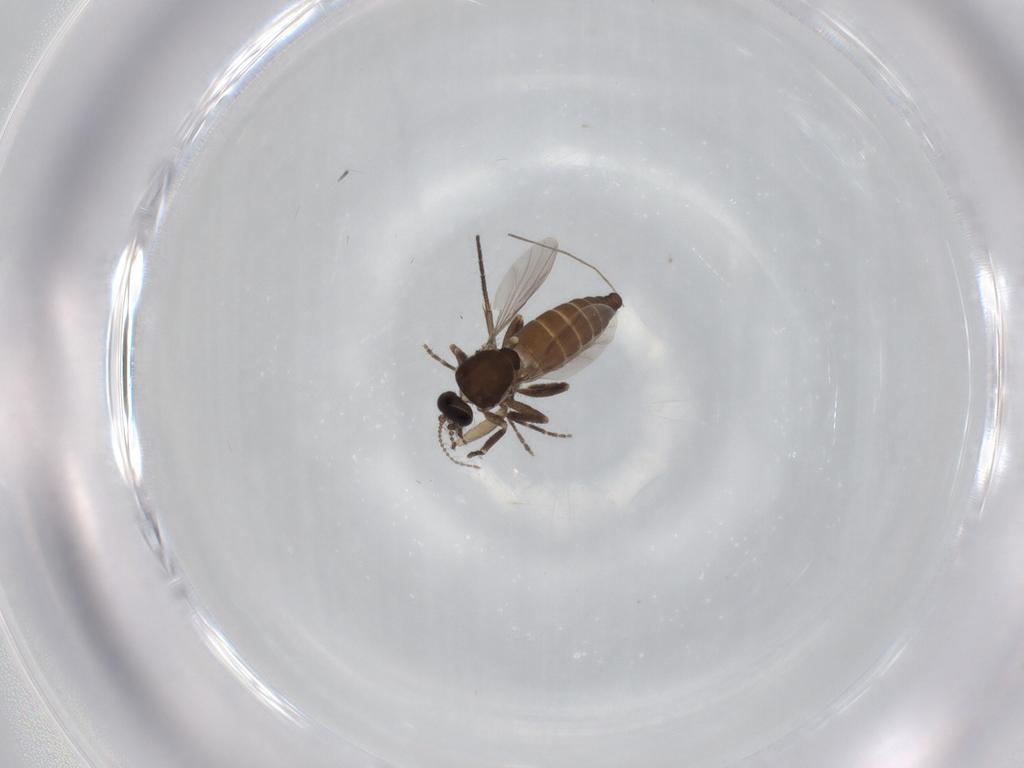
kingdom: Animalia
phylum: Arthropoda
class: Insecta
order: Diptera
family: Ceratopogonidae
